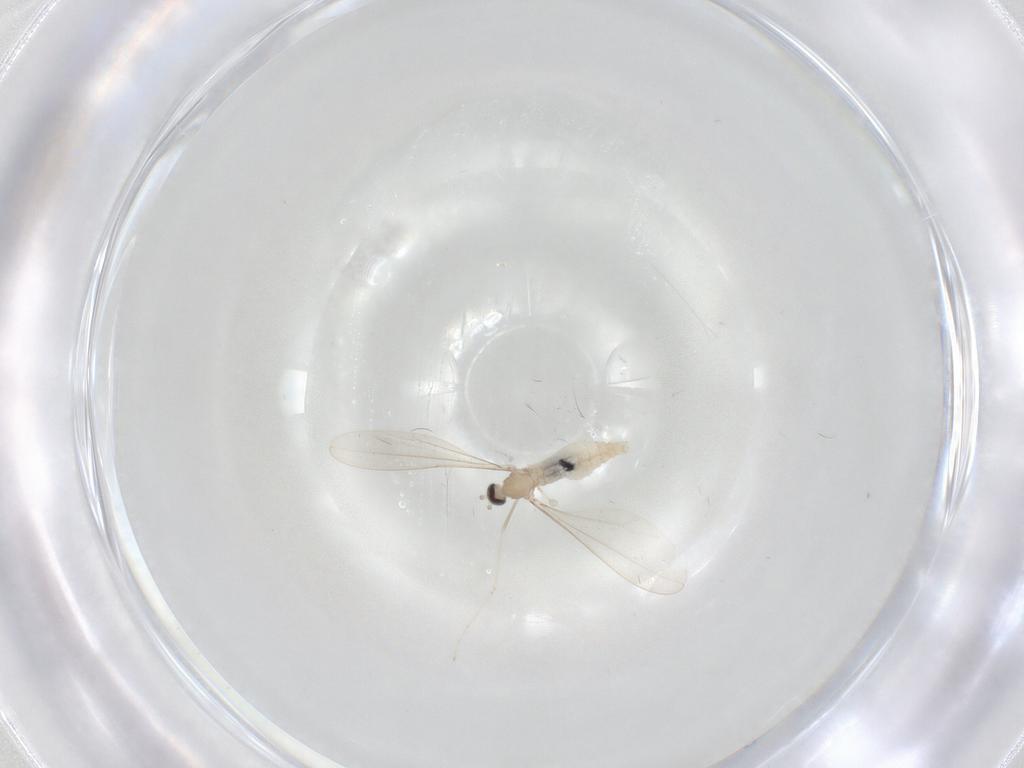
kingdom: Animalia
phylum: Arthropoda
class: Insecta
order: Diptera
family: Cecidomyiidae
